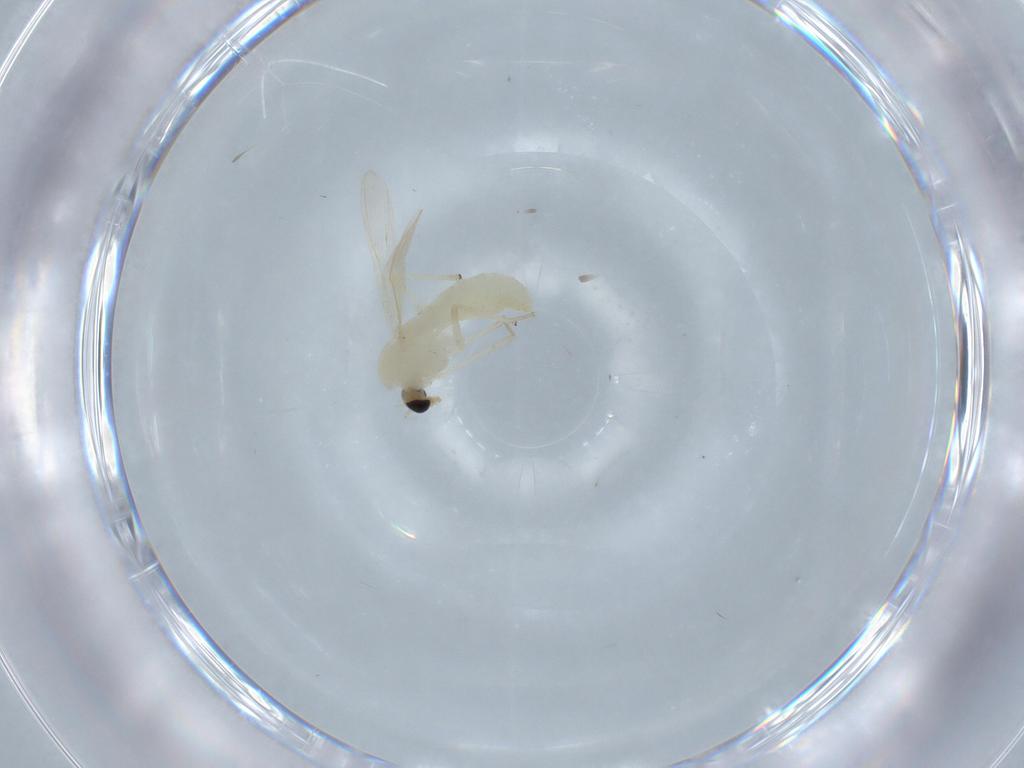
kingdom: Animalia
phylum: Arthropoda
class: Insecta
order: Diptera
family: Chironomidae
